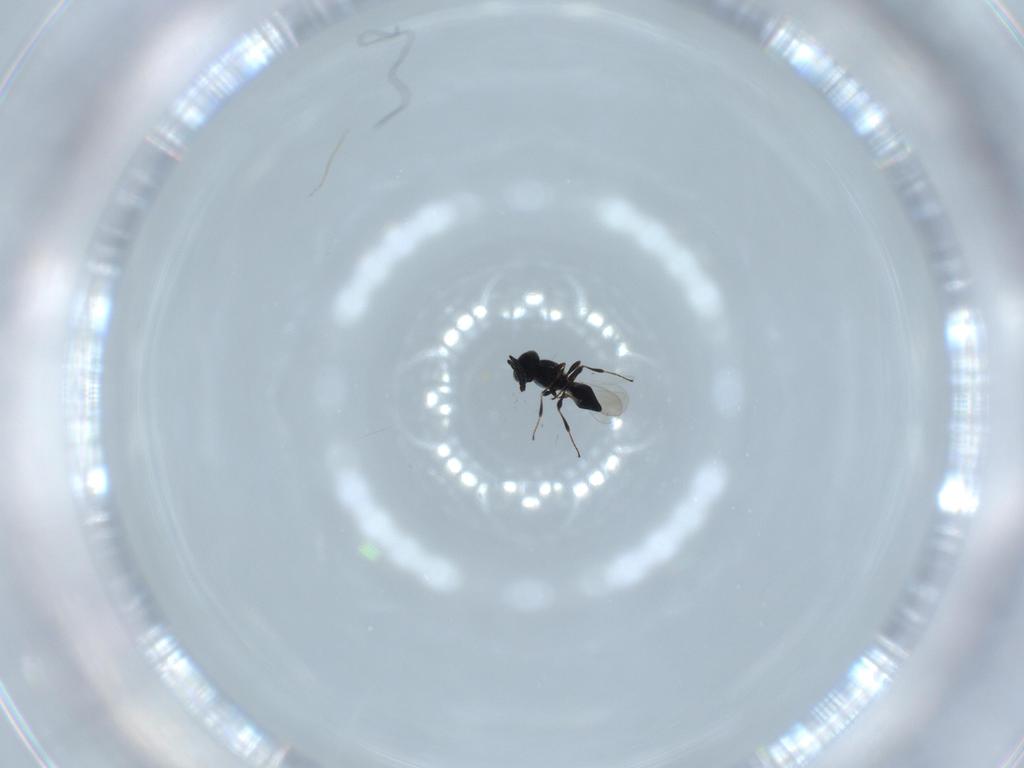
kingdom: Animalia
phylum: Arthropoda
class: Insecta
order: Diptera
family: Mythicomyiidae
